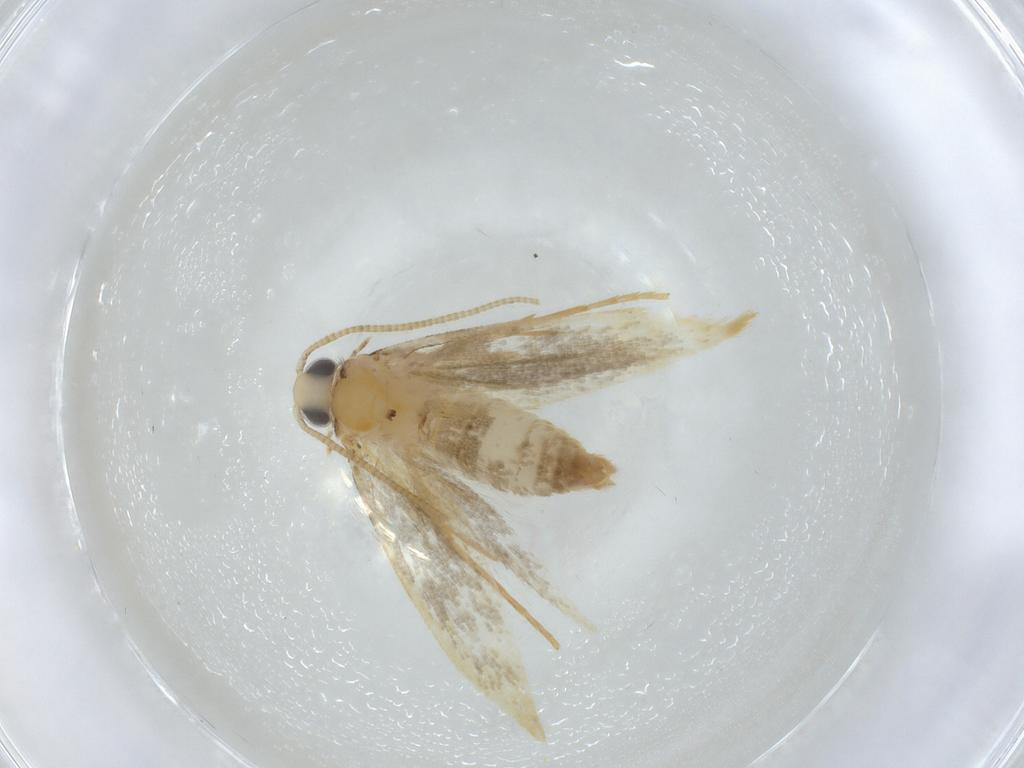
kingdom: Animalia
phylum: Arthropoda
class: Insecta
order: Lepidoptera
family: Nepticulidae
